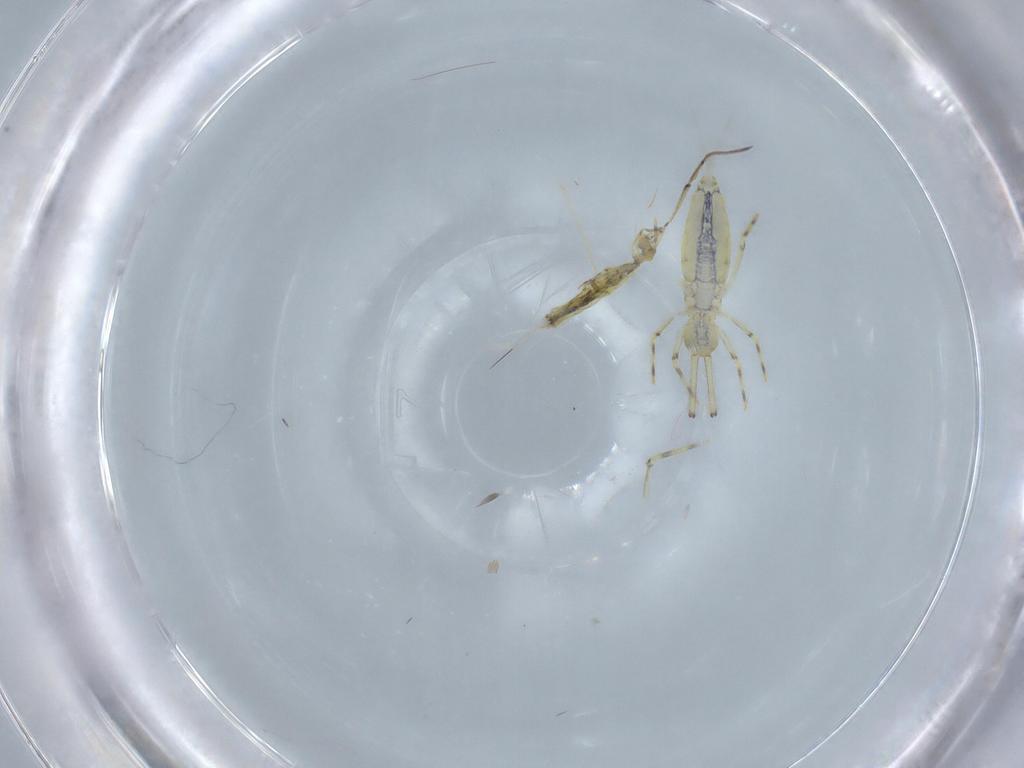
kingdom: Animalia
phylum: Arthropoda
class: Collembola
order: Entomobryomorpha
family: Paronellidae
